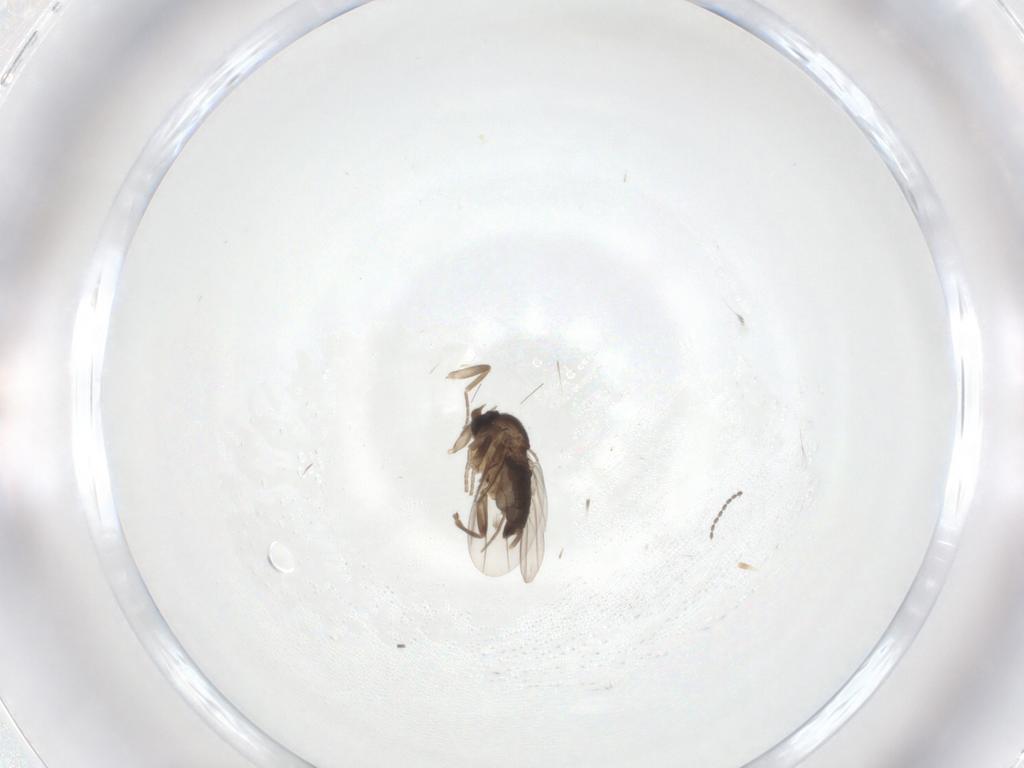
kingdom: Animalia
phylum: Arthropoda
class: Insecta
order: Diptera
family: Phoridae
